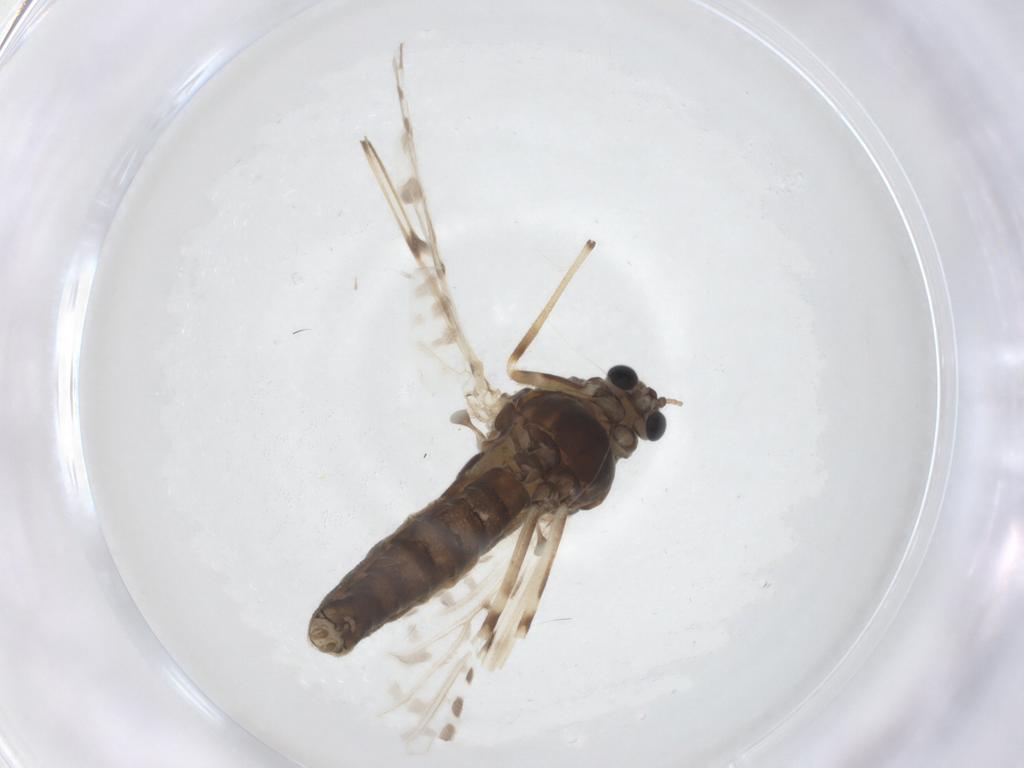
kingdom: Animalia
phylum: Arthropoda
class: Insecta
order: Diptera
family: Chironomidae
